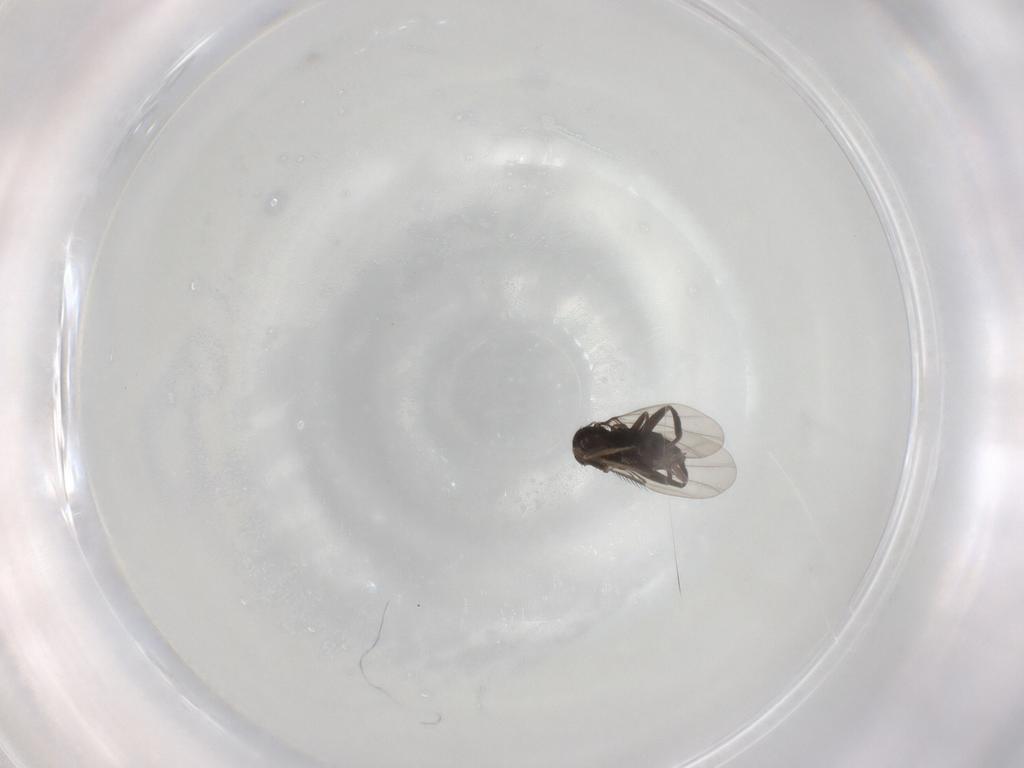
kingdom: Animalia
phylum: Arthropoda
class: Insecta
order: Diptera
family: Phoridae
